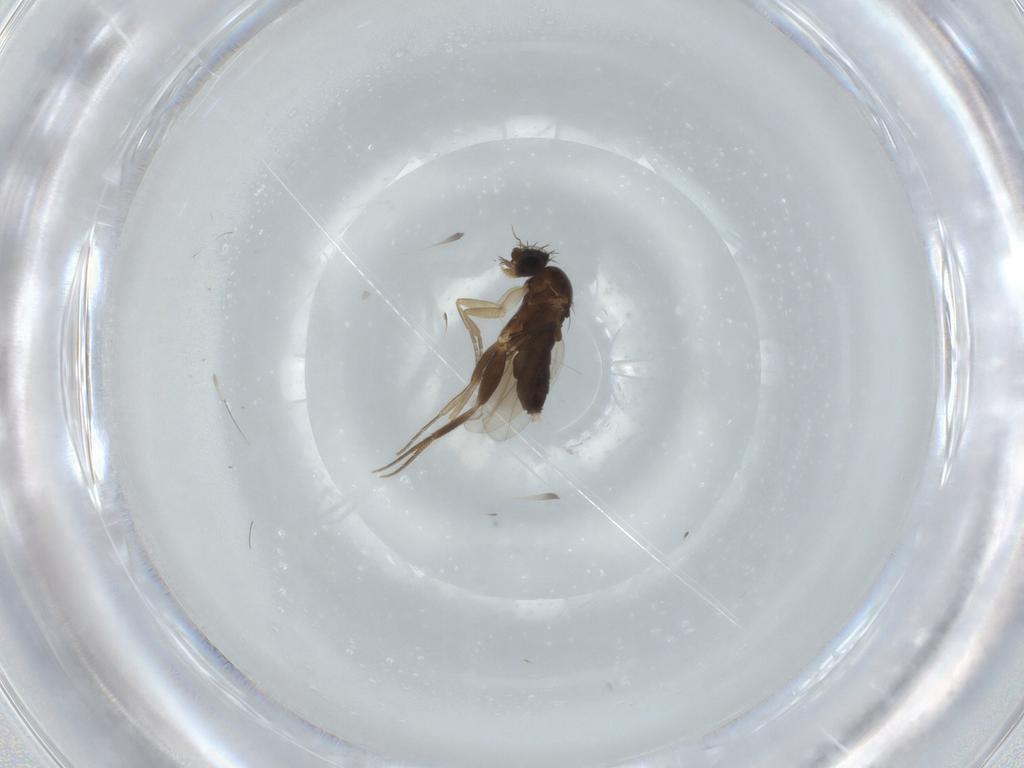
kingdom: Animalia
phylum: Arthropoda
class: Insecta
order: Diptera
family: Phoridae
